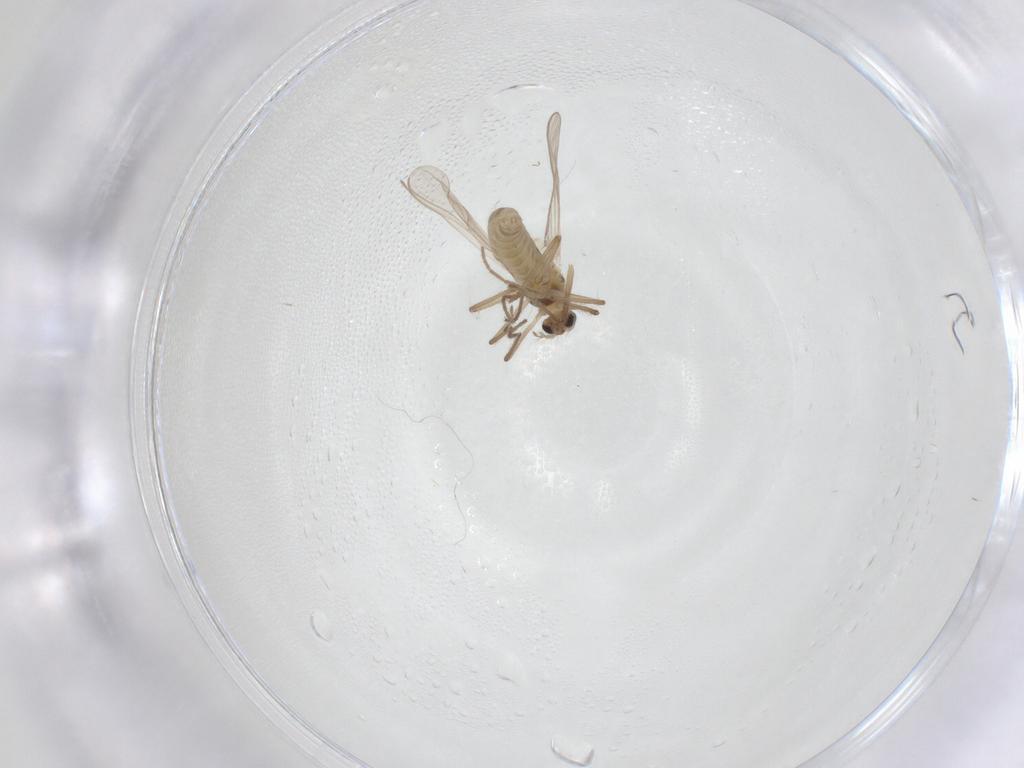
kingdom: Animalia
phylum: Arthropoda
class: Insecta
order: Diptera
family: Chironomidae
